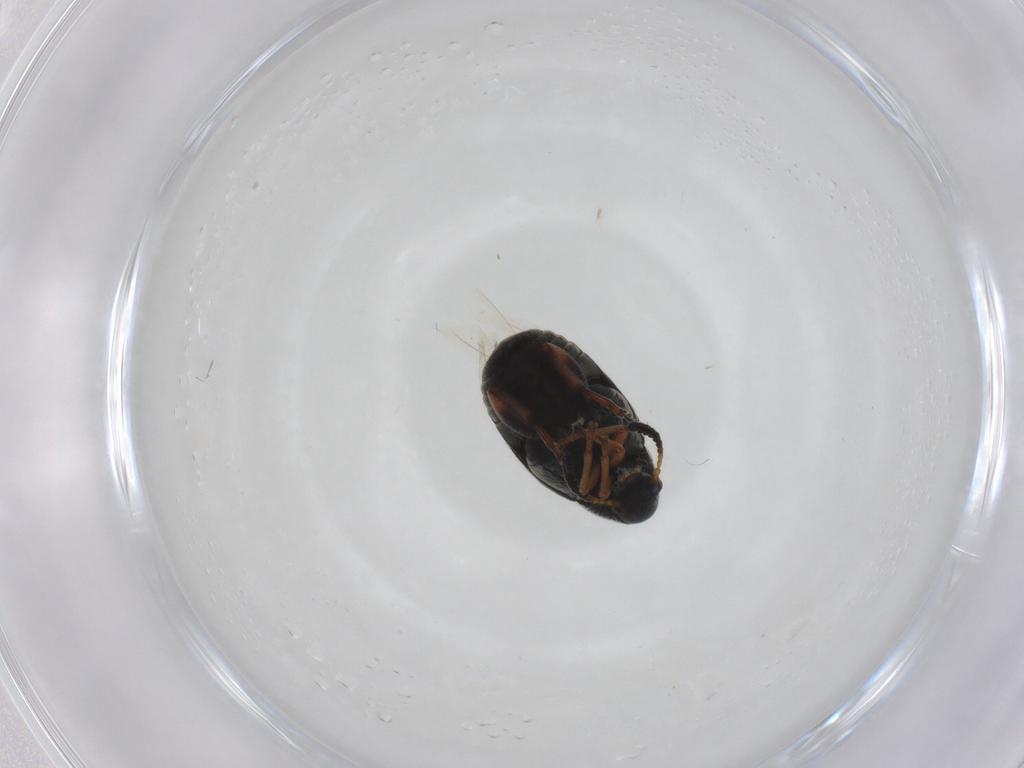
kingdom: Animalia
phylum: Arthropoda
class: Insecta
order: Coleoptera
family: Chrysomelidae
